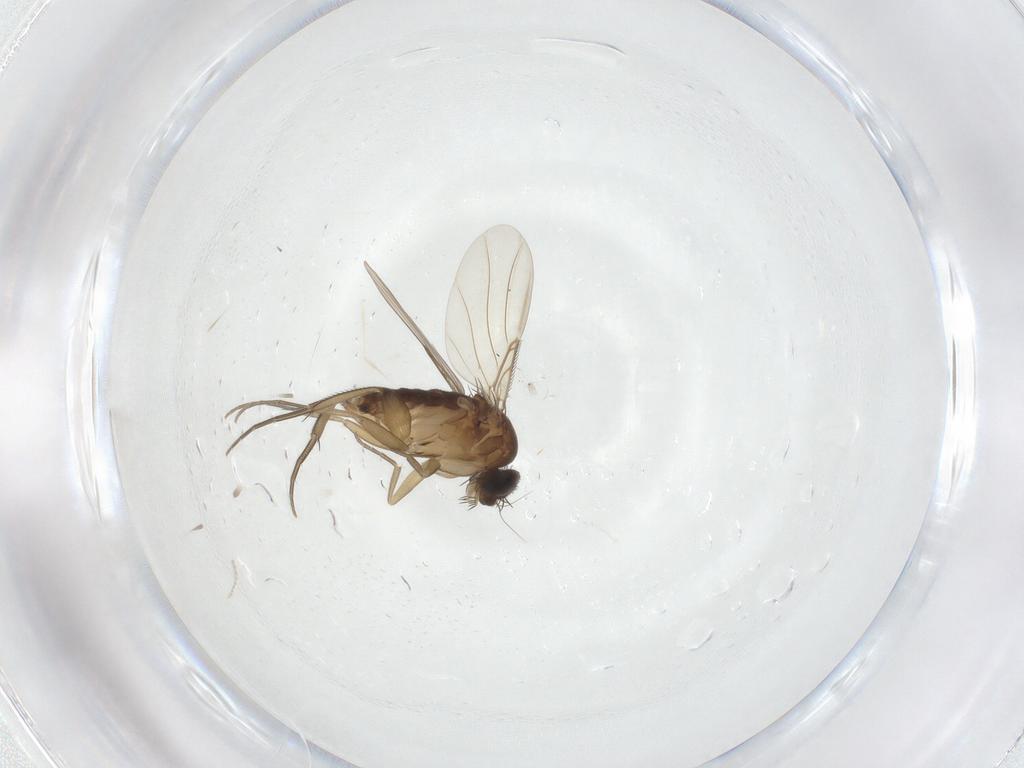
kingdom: Animalia
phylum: Arthropoda
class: Insecta
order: Diptera
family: Phoridae
